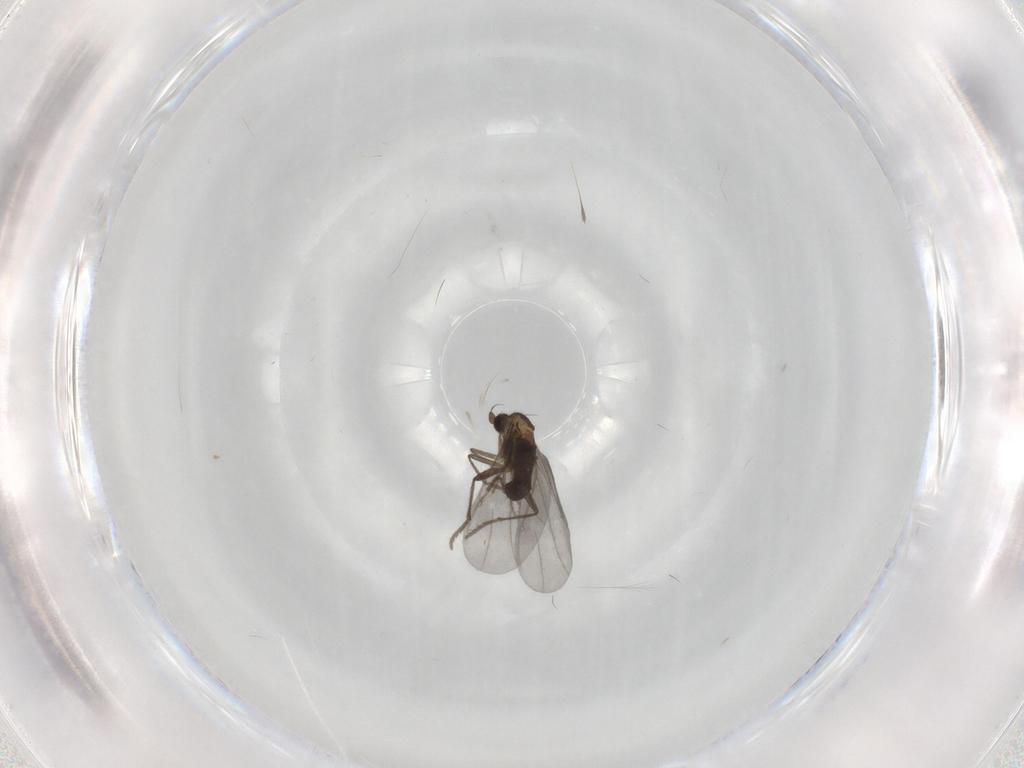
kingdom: Animalia
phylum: Arthropoda
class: Insecta
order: Diptera
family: Phoridae
